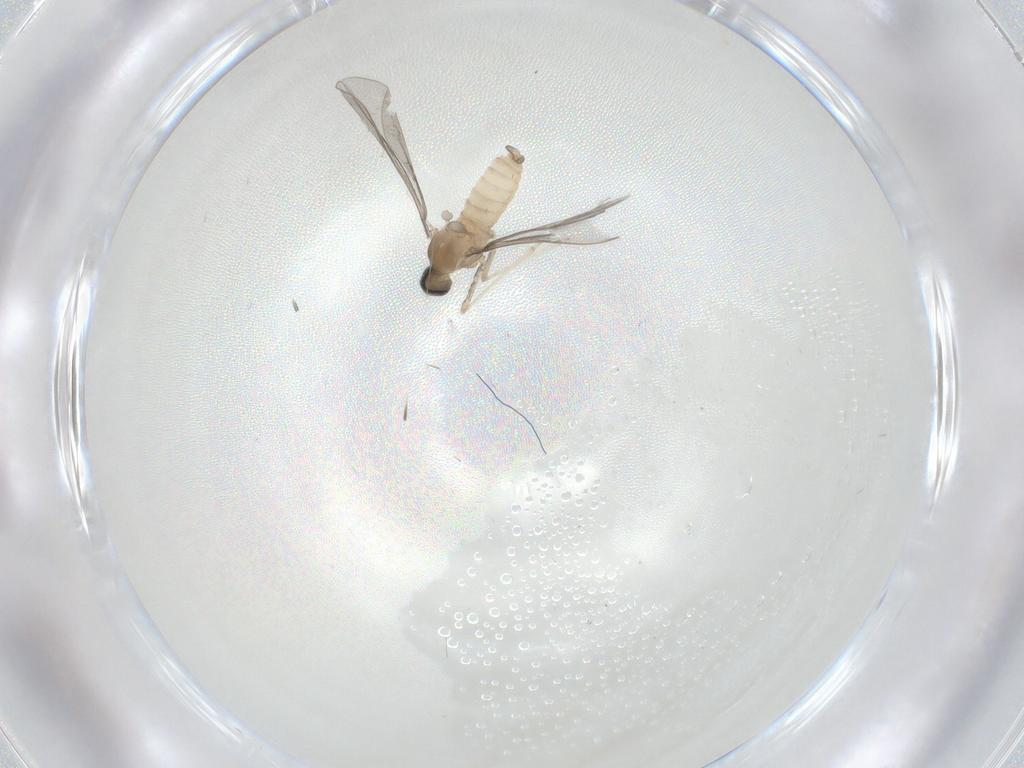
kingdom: Animalia
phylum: Arthropoda
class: Insecta
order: Diptera
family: Cecidomyiidae
